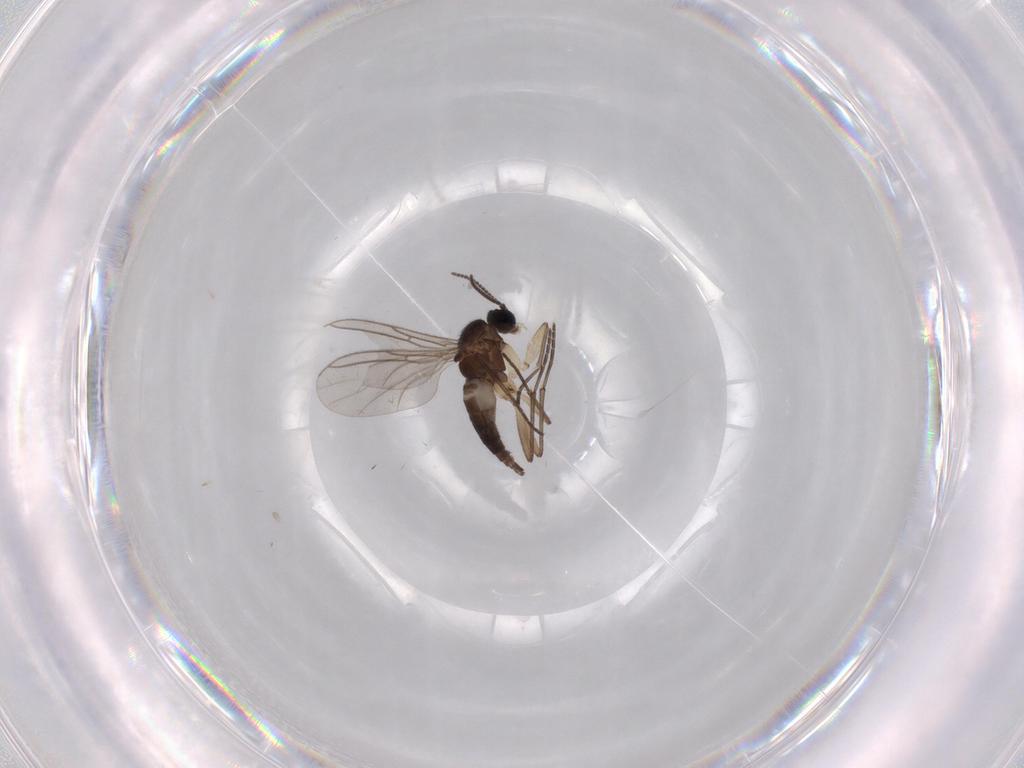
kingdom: Animalia
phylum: Arthropoda
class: Insecta
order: Diptera
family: Sciaridae
